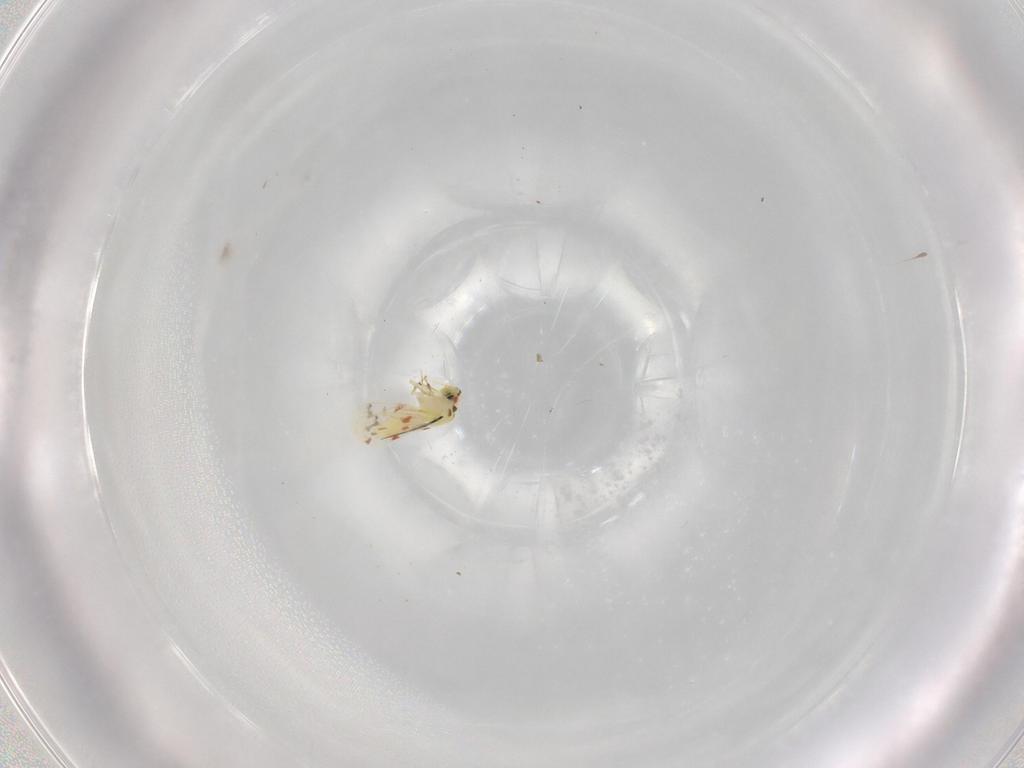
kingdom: Animalia
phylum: Arthropoda
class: Insecta
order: Hemiptera
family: Aleyrodidae
